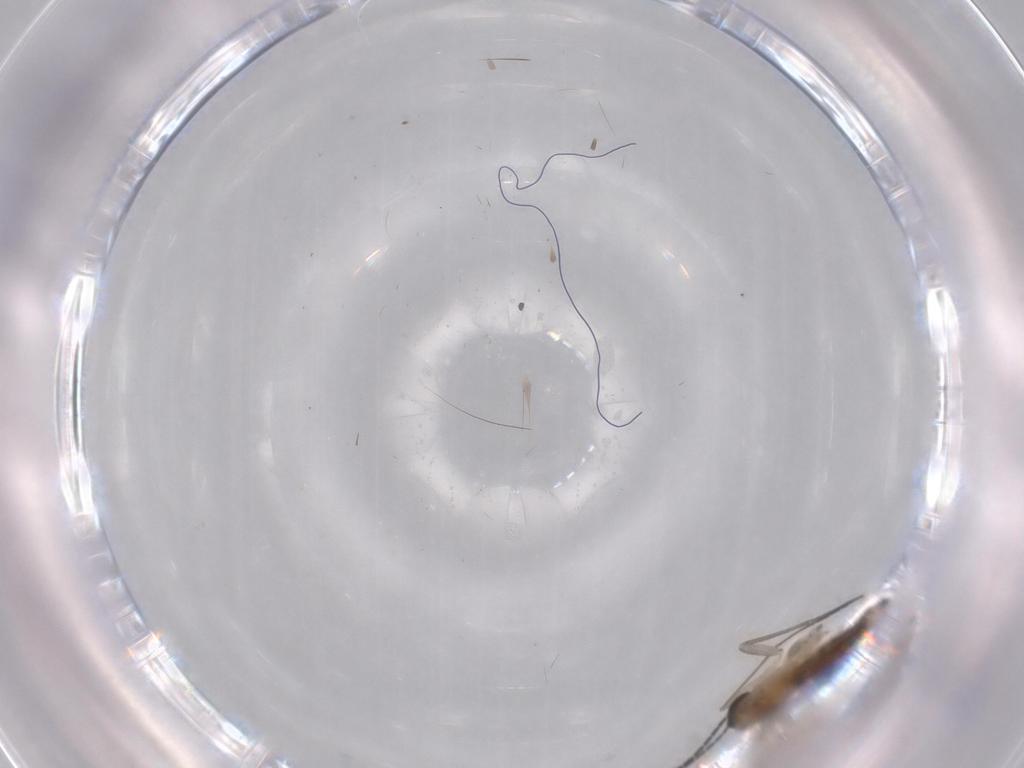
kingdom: Animalia
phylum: Arthropoda
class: Insecta
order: Diptera
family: Sciaridae
